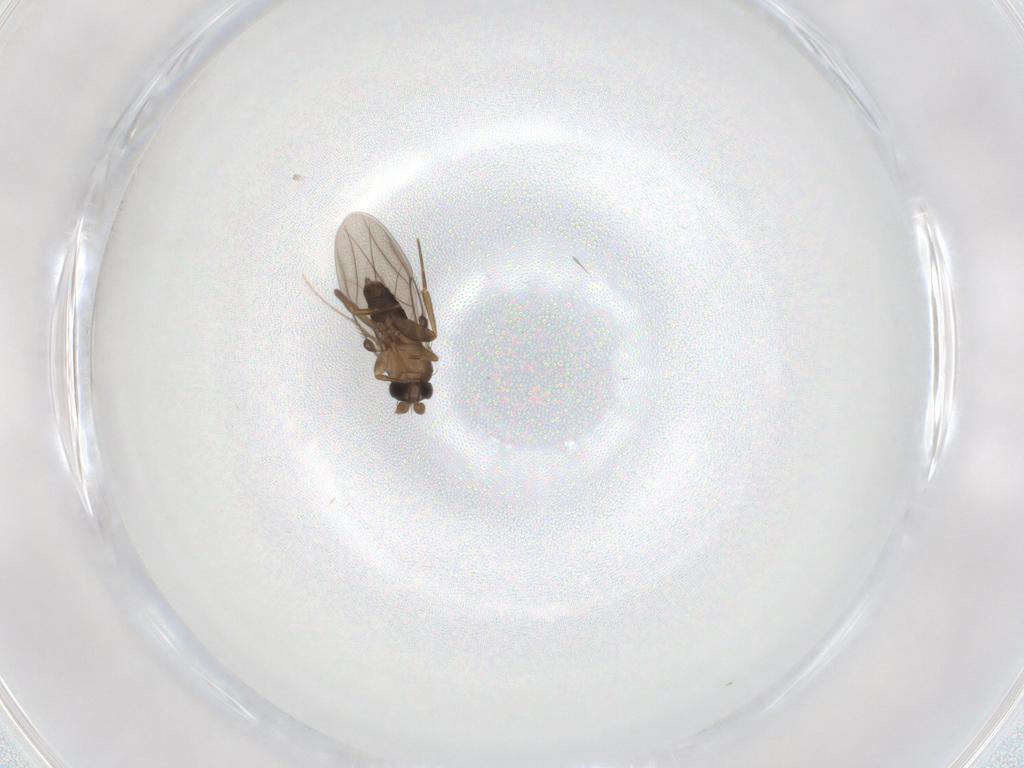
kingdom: Animalia
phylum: Arthropoda
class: Insecta
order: Diptera
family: Phoridae
